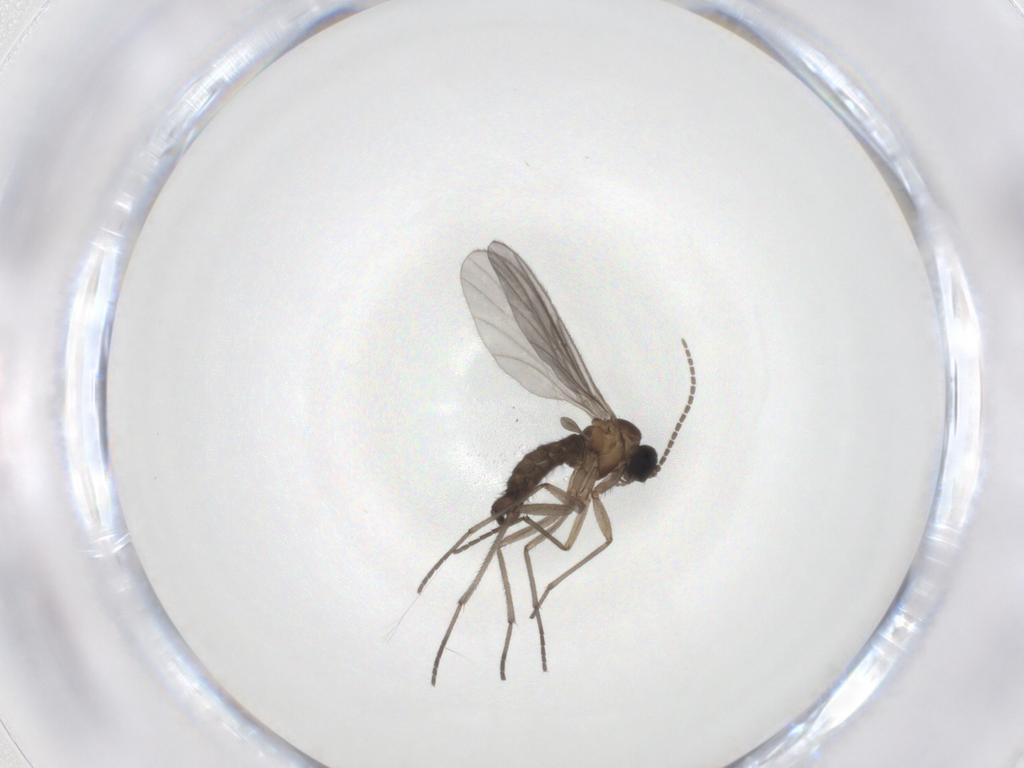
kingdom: Animalia
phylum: Arthropoda
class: Insecta
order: Diptera
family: Sciaridae
